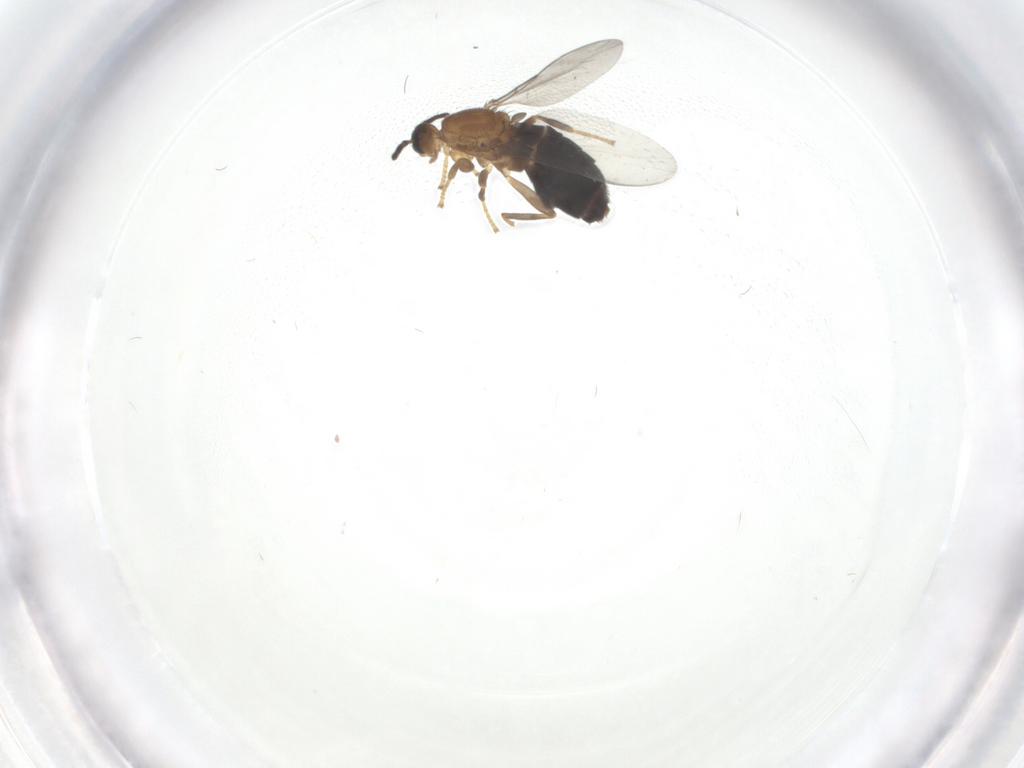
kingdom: Animalia
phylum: Arthropoda
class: Insecta
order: Diptera
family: Scatopsidae
